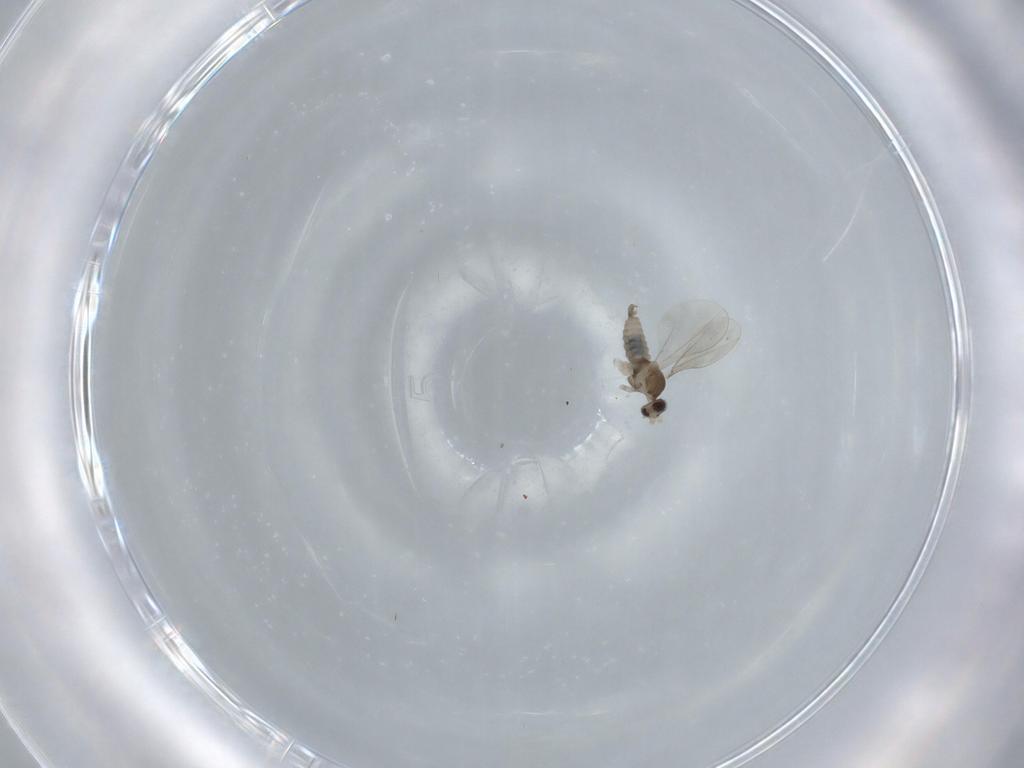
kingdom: Animalia
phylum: Arthropoda
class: Insecta
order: Diptera
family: Cecidomyiidae
